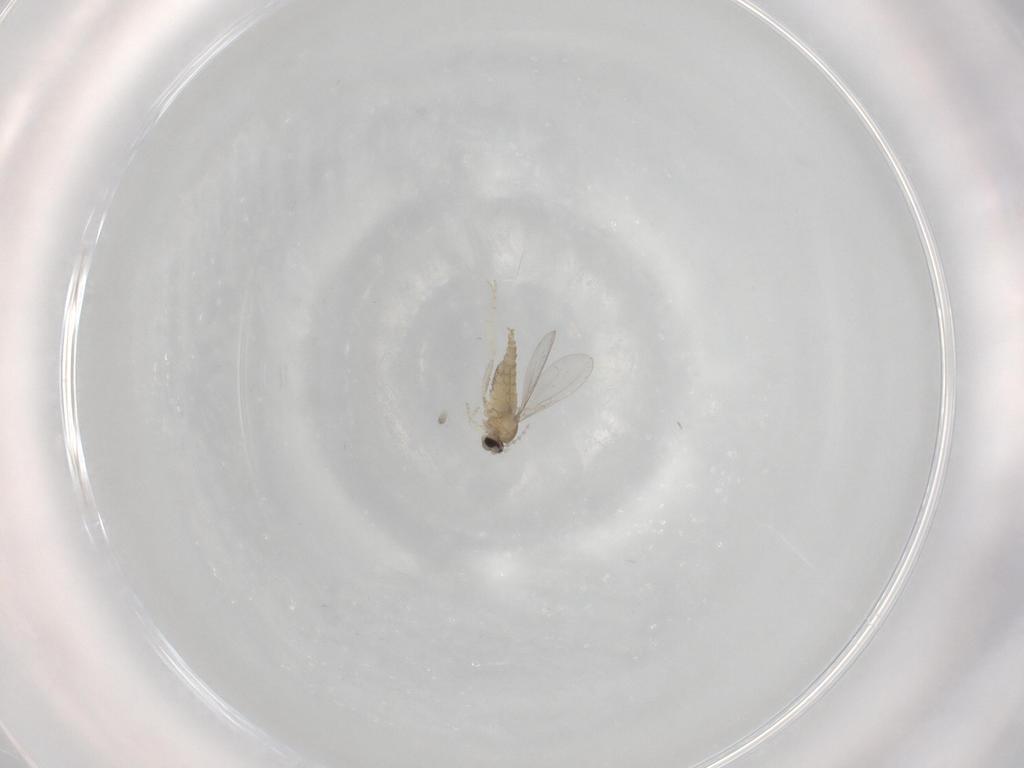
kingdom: Animalia
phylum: Arthropoda
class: Insecta
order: Diptera
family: Cecidomyiidae
